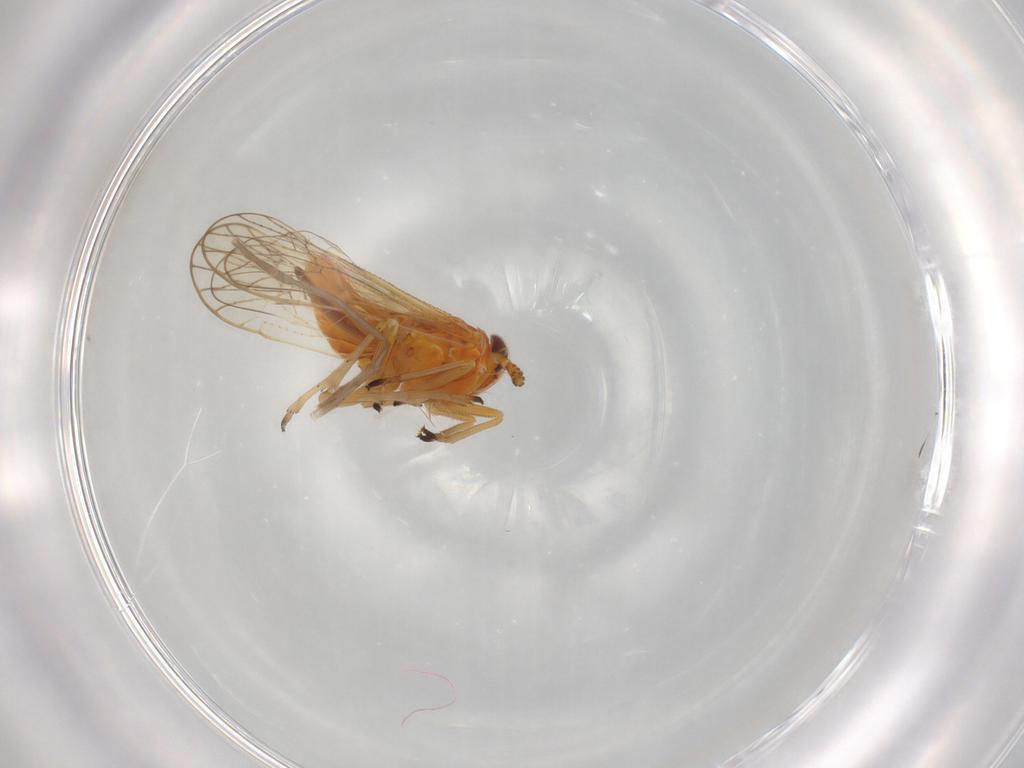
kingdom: Animalia
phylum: Arthropoda
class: Insecta
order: Hemiptera
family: Delphacidae
